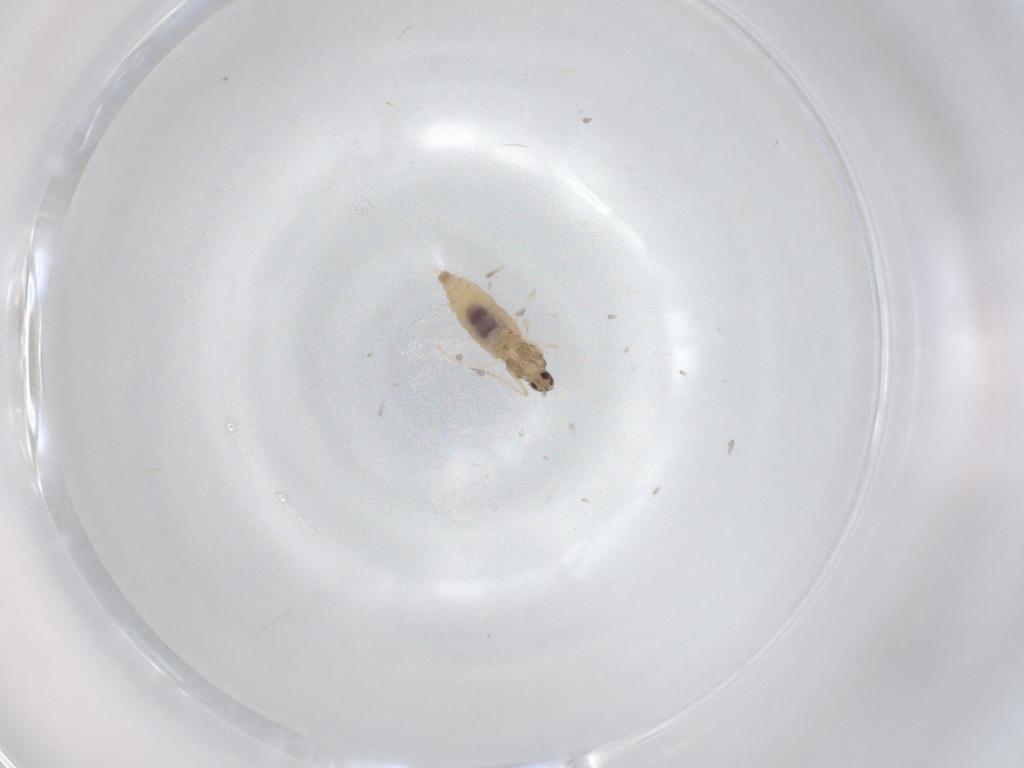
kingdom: Animalia
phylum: Arthropoda
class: Insecta
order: Diptera
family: Cecidomyiidae
